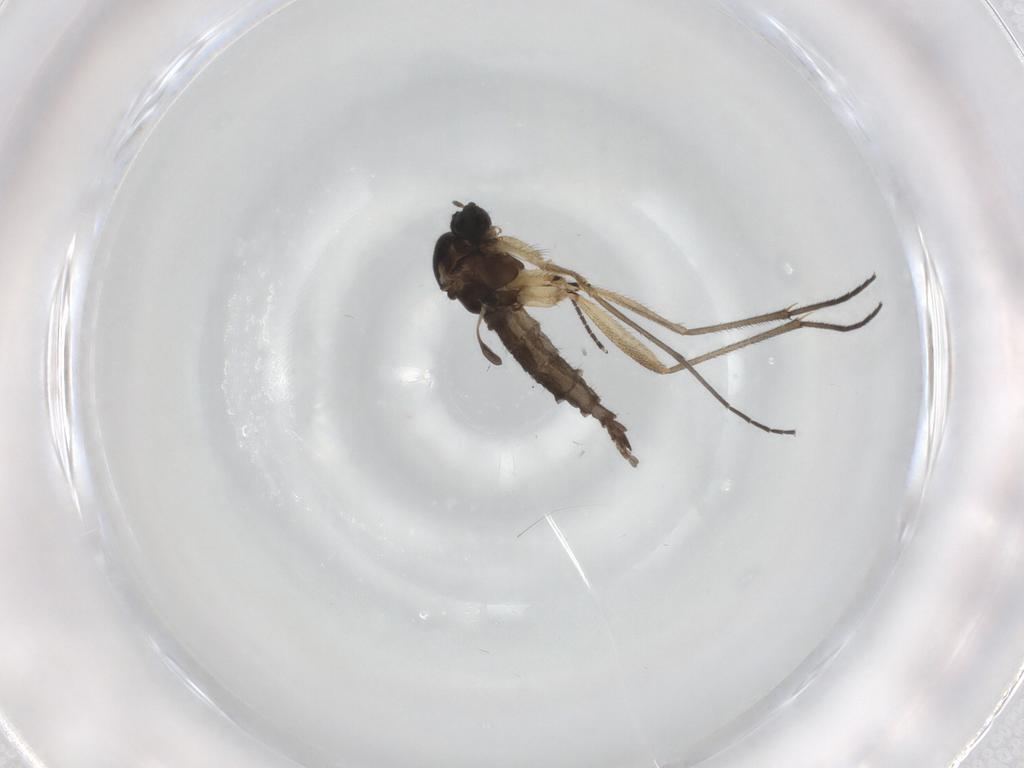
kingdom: Animalia
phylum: Arthropoda
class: Insecta
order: Diptera
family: Sciaridae
